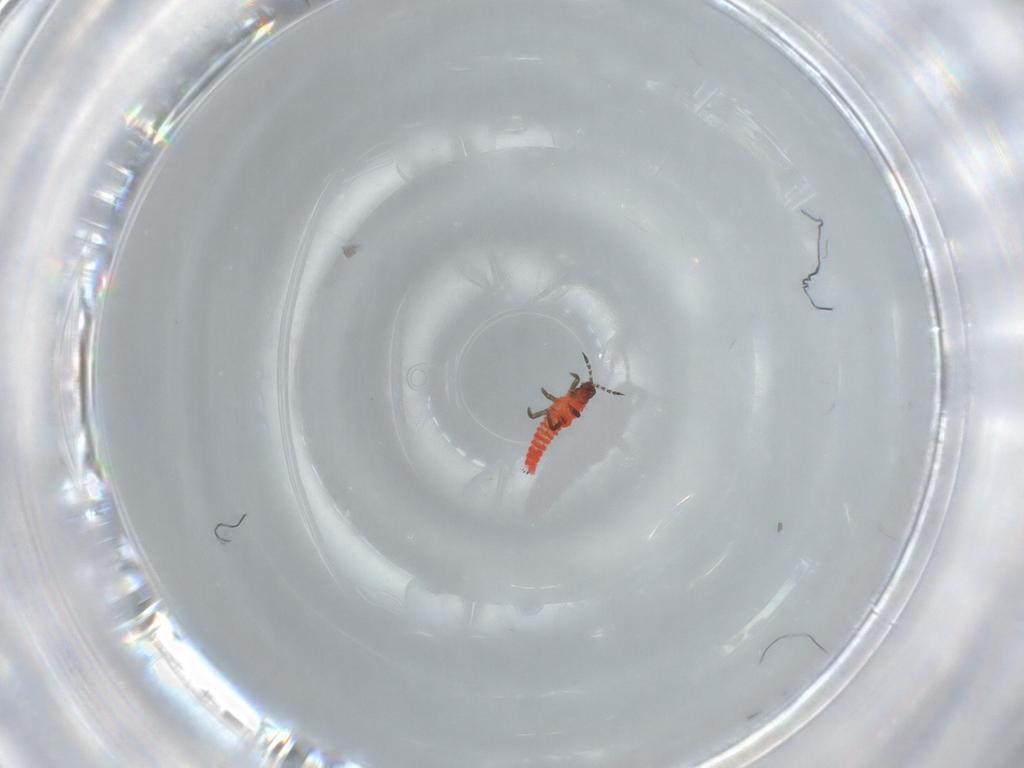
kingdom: Animalia
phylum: Arthropoda
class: Insecta
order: Thysanoptera
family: Phlaeothripidae
